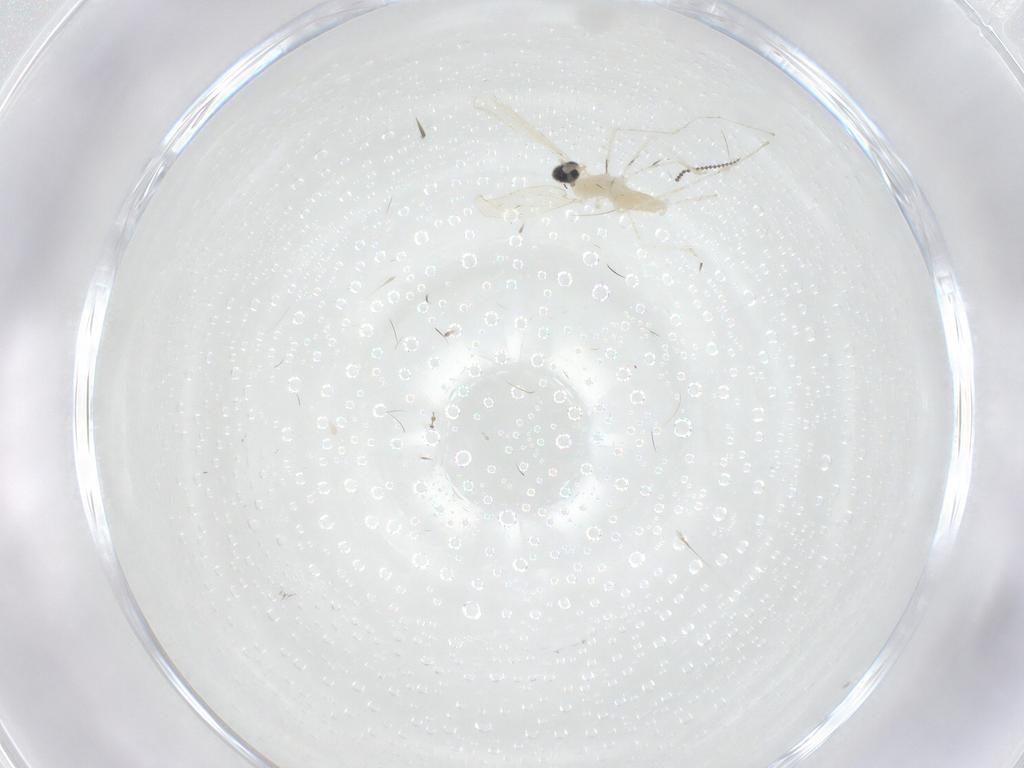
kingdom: Animalia
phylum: Arthropoda
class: Insecta
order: Diptera
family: Cecidomyiidae
